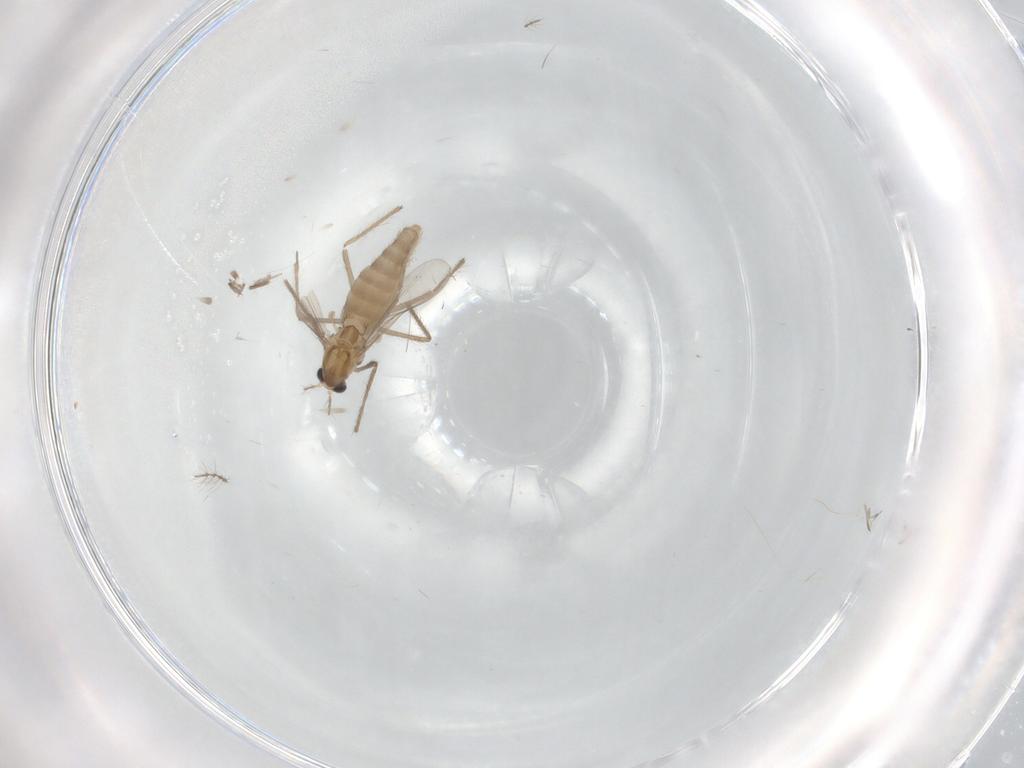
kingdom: Animalia
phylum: Arthropoda
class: Insecta
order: Diptera
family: Chironomidae
